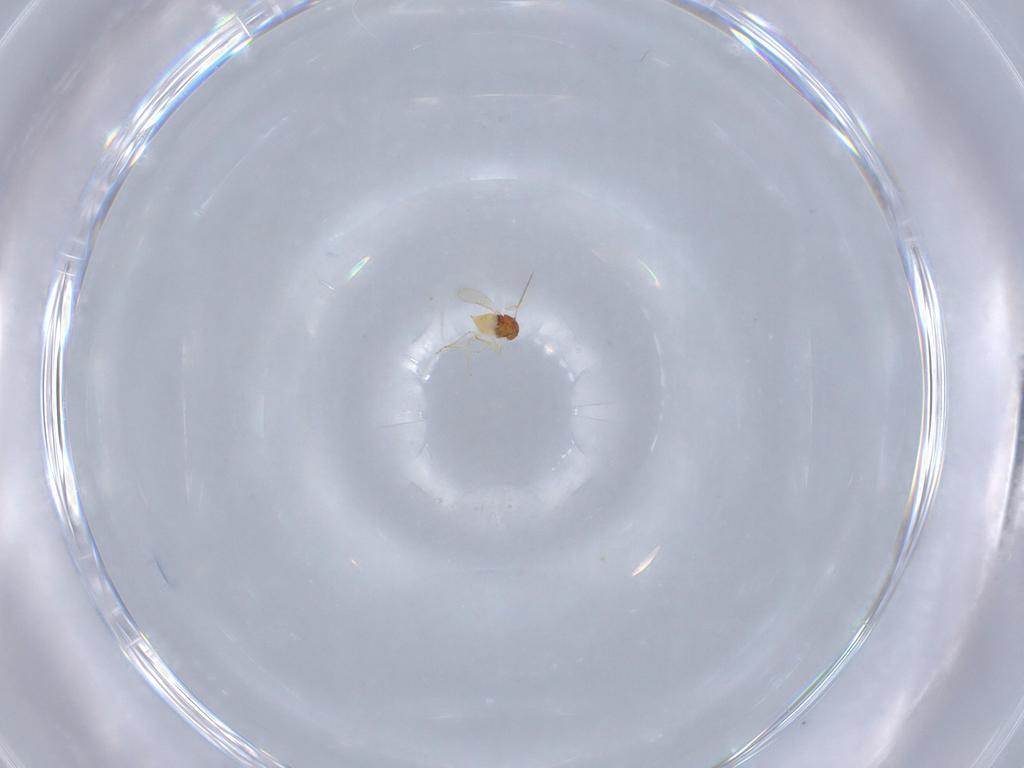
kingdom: Animalia
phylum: Arthropoda
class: Insecta
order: Hymenoptera
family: Aphelinidae
